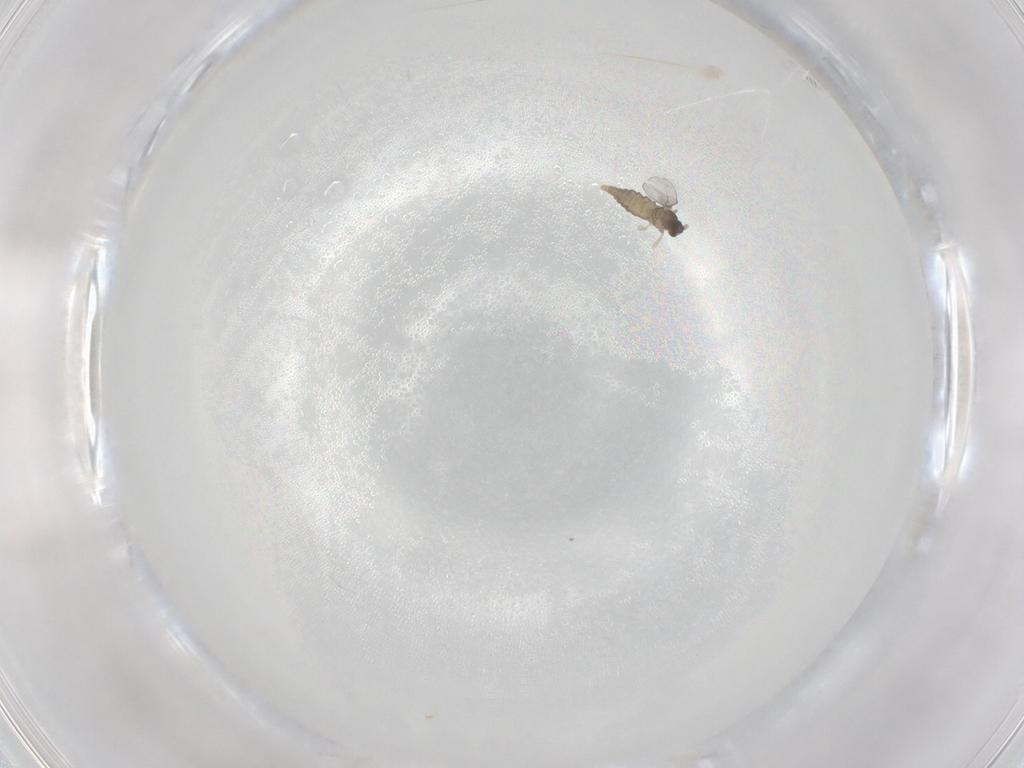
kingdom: Animalia
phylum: Arthropoda
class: Insecta
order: Diptera
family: Cecidomyiidae
